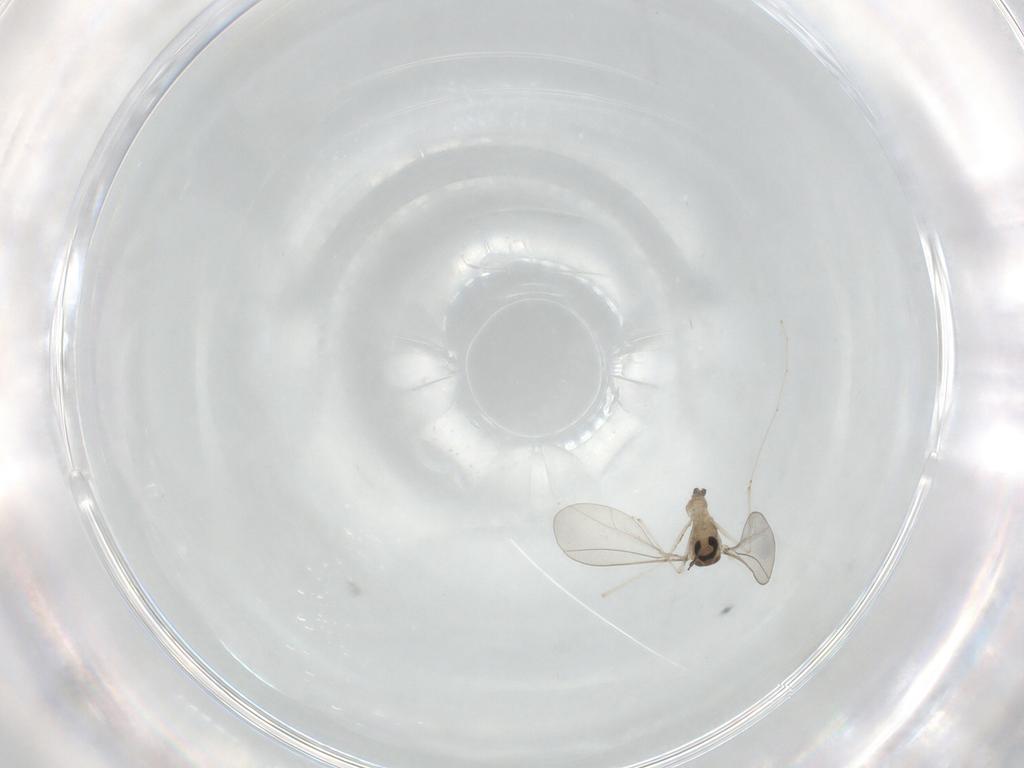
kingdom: Animalia
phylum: Arthropoda
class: Insecta
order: Diptera
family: Cecidomyiidae
